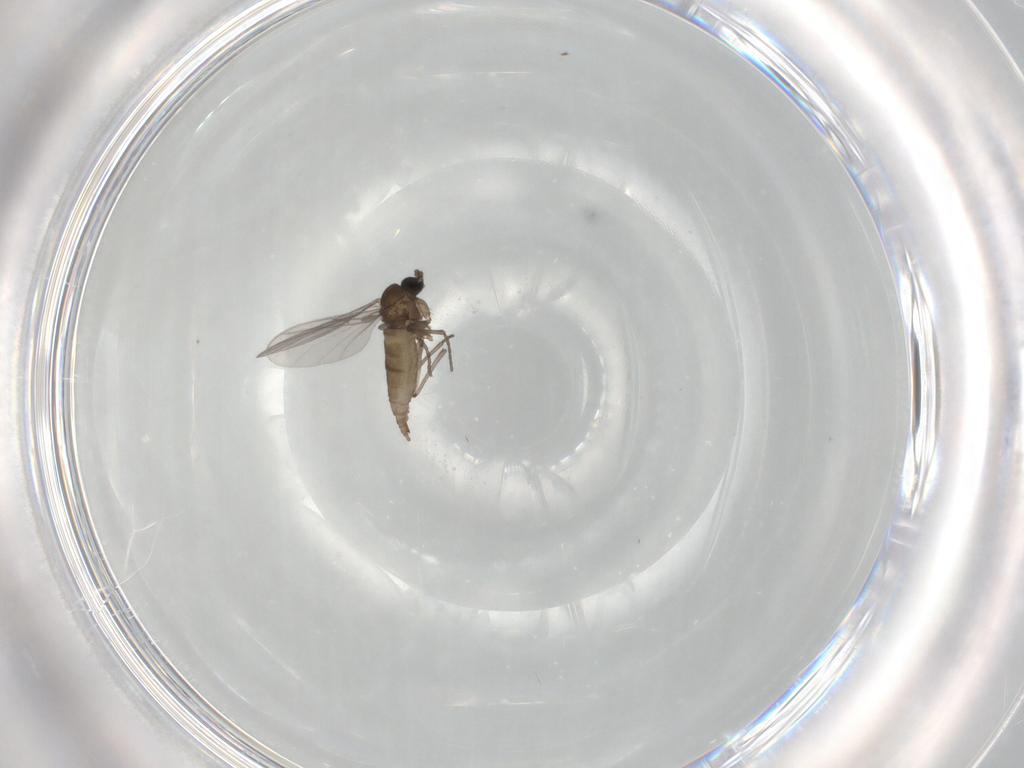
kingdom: Animalia
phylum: Arthropoda
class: Insecta
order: Diptera
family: Sciaridae
